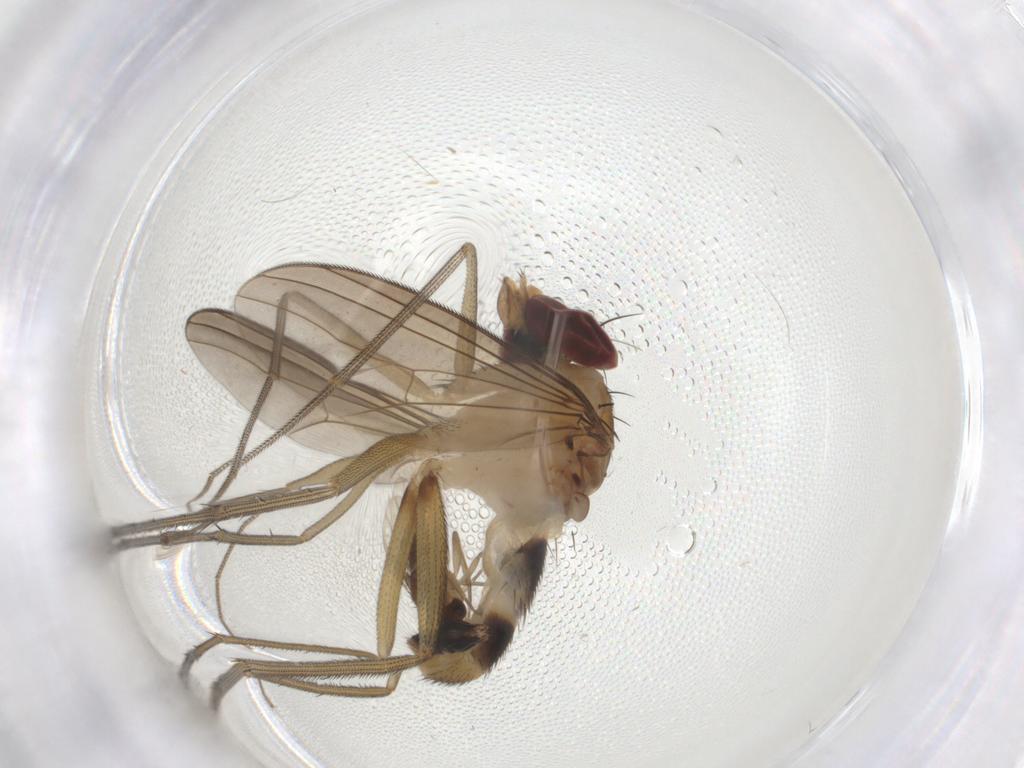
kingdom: Animalia
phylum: Arthropoda
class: Insecta
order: Diptera
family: Dolichopodidae
